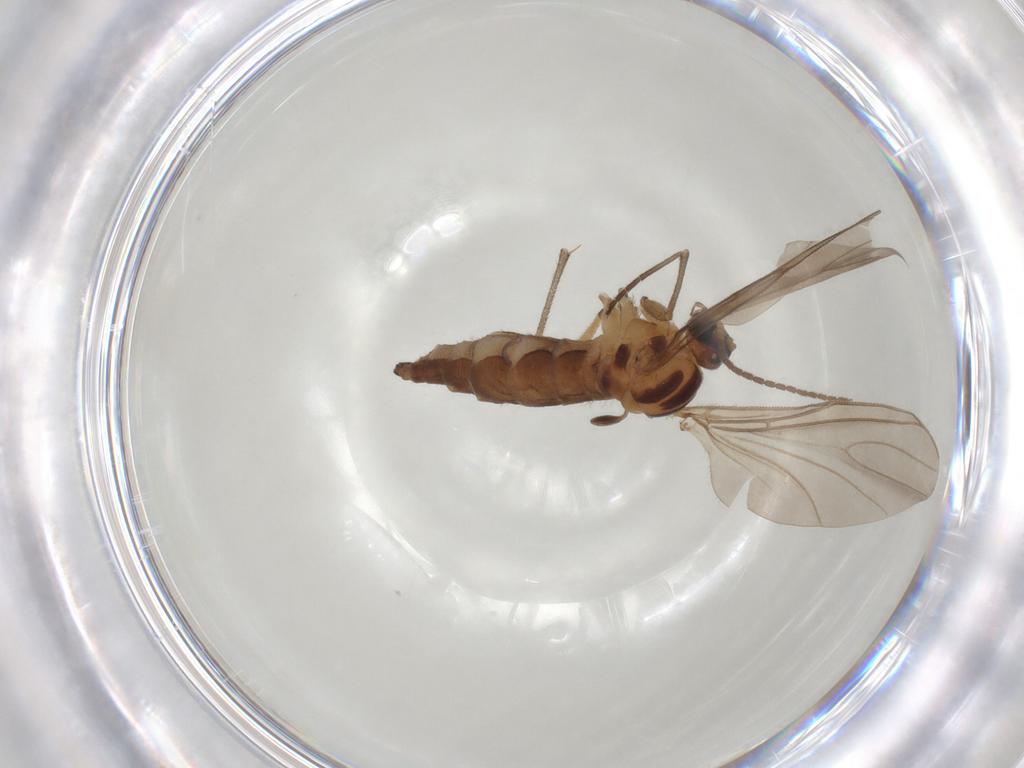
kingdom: Animalia
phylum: Arthropoda
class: Insecta
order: Diptera
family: Sciaridae
